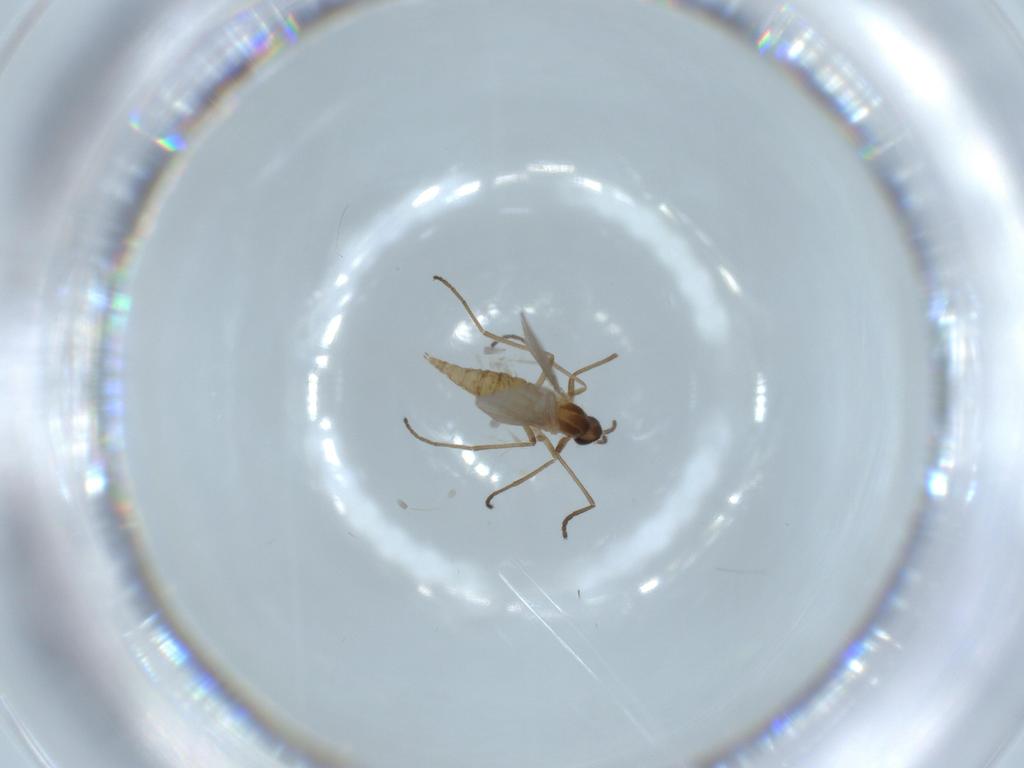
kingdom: Animalia
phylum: Arthropoda
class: Insecta
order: Diptera
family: Cecidomyiidae
